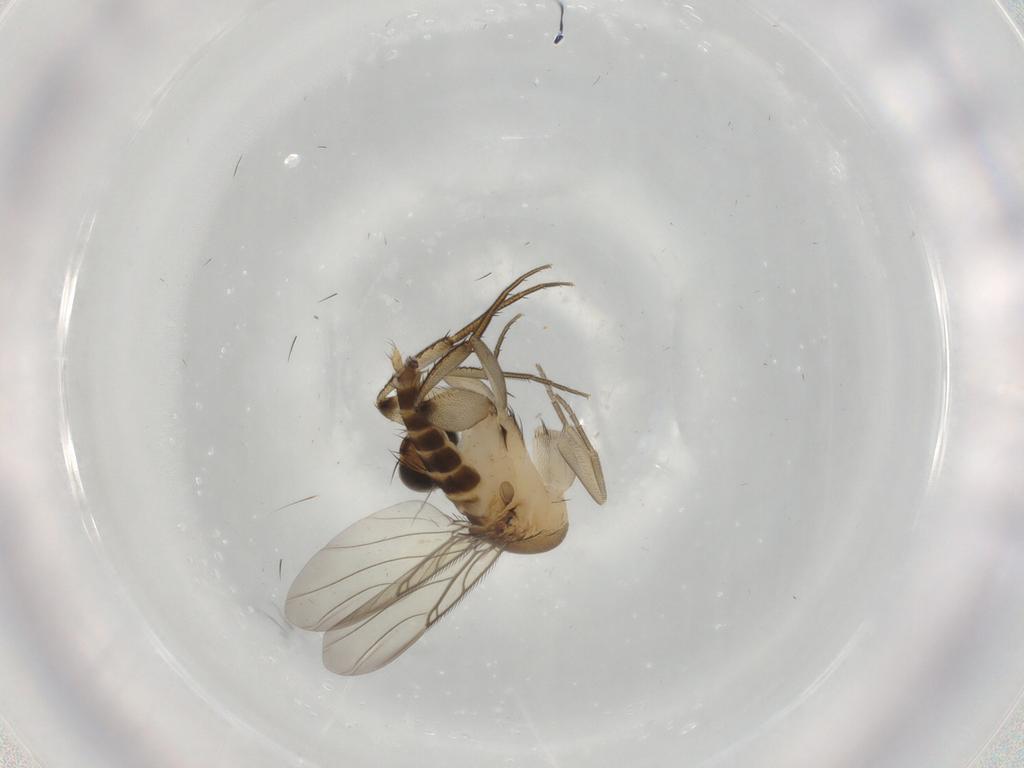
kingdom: Animalia
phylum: Arthropoda
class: Insecta
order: Diptera
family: Phoridae
